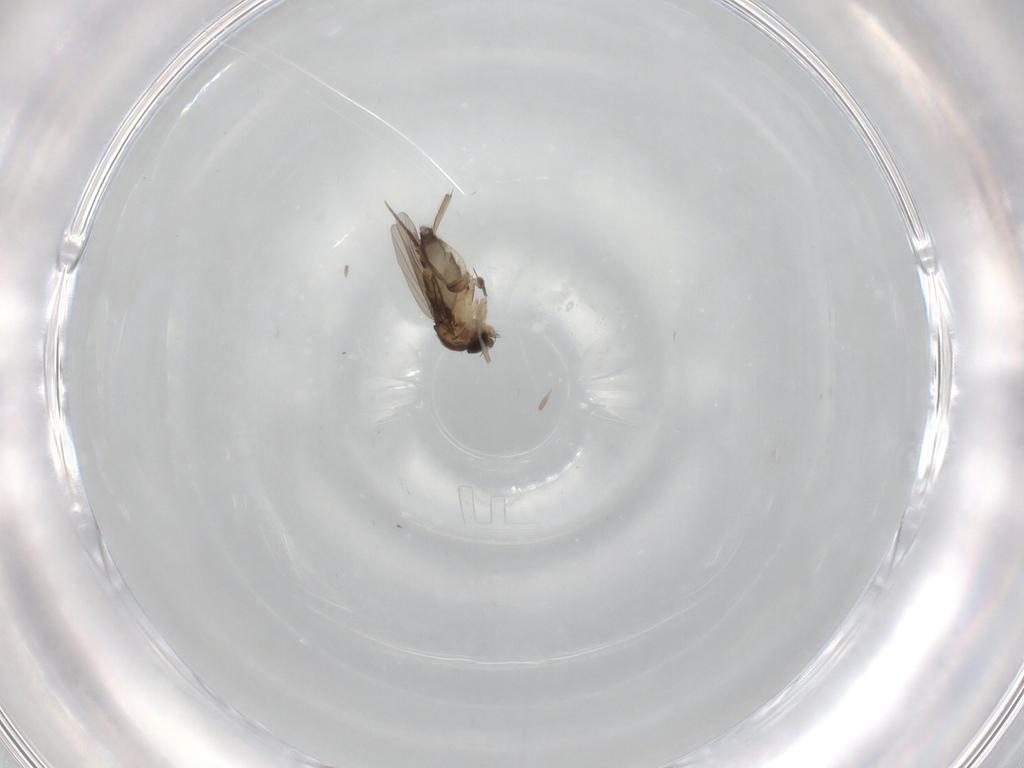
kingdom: Animalia
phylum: Arthropoda
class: Insecta
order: Diptera
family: Phoridae
